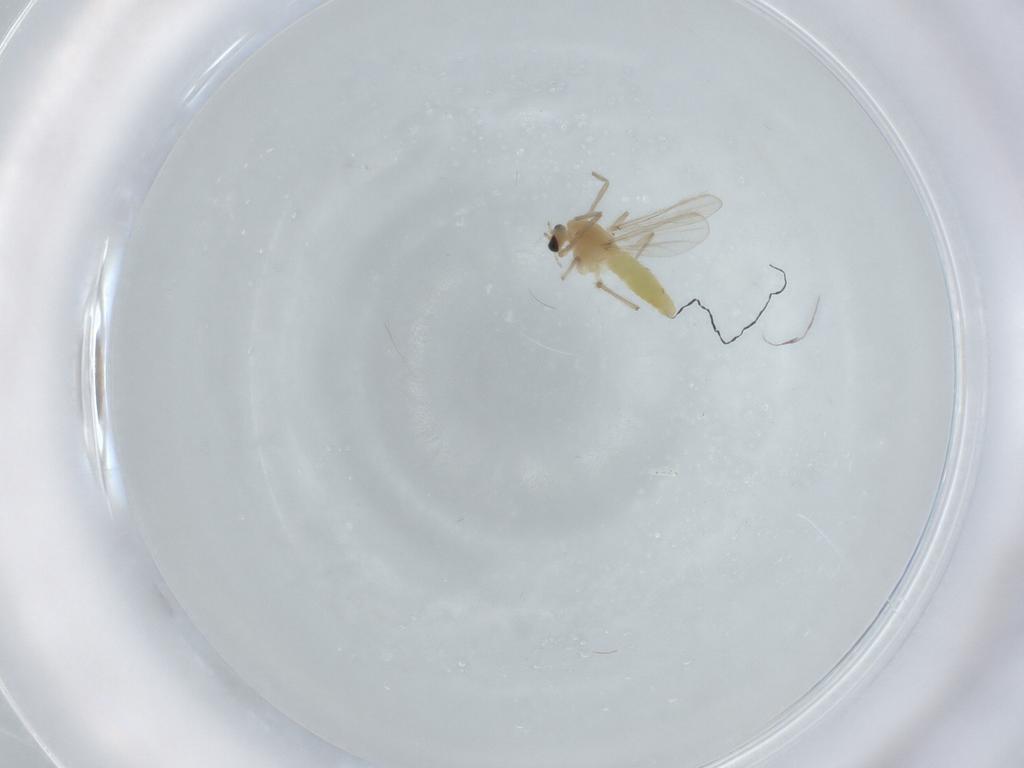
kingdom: Animalia
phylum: Arthropoda
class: Insecta
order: Diptera
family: Chironomidae
